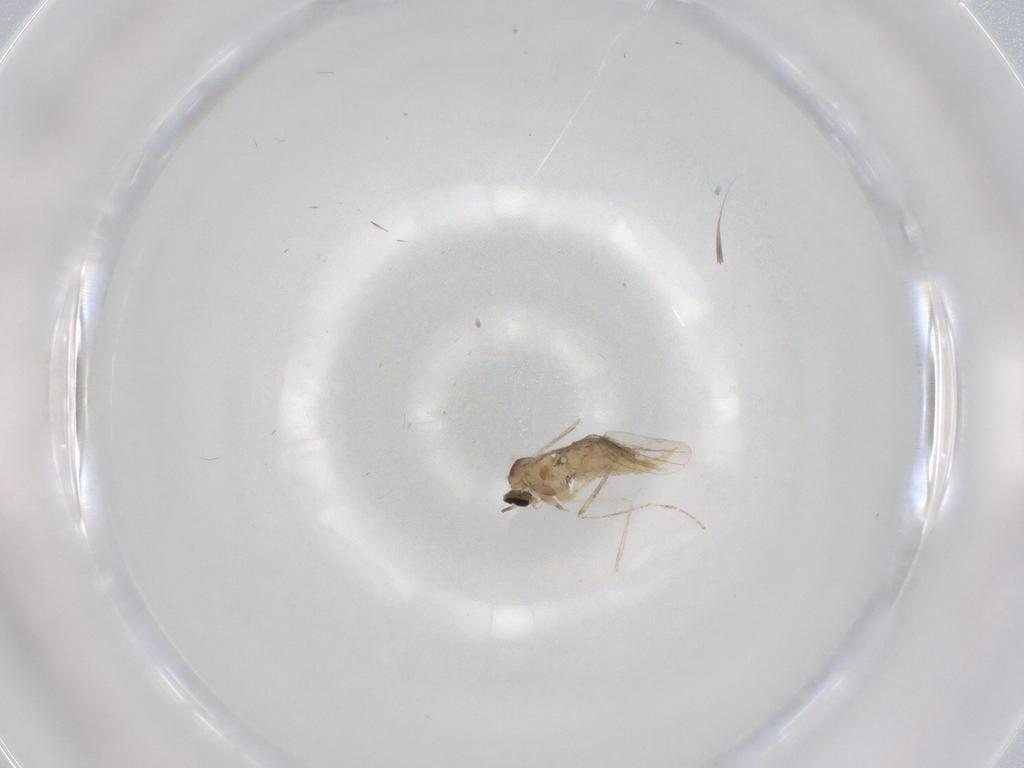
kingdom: Animalia
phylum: Arthropoda
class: Insecta
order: Diptera
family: Cecidomyiidae
